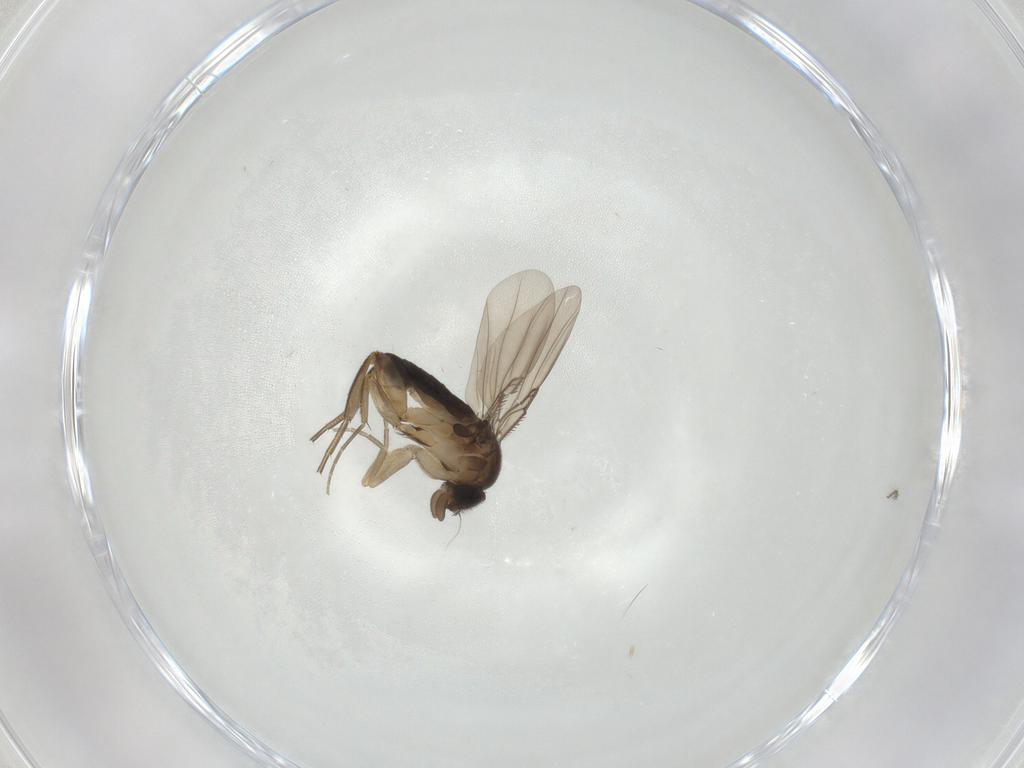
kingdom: Animalia
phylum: Arthropoda
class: Insecta
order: Diptera
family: Phoridae
